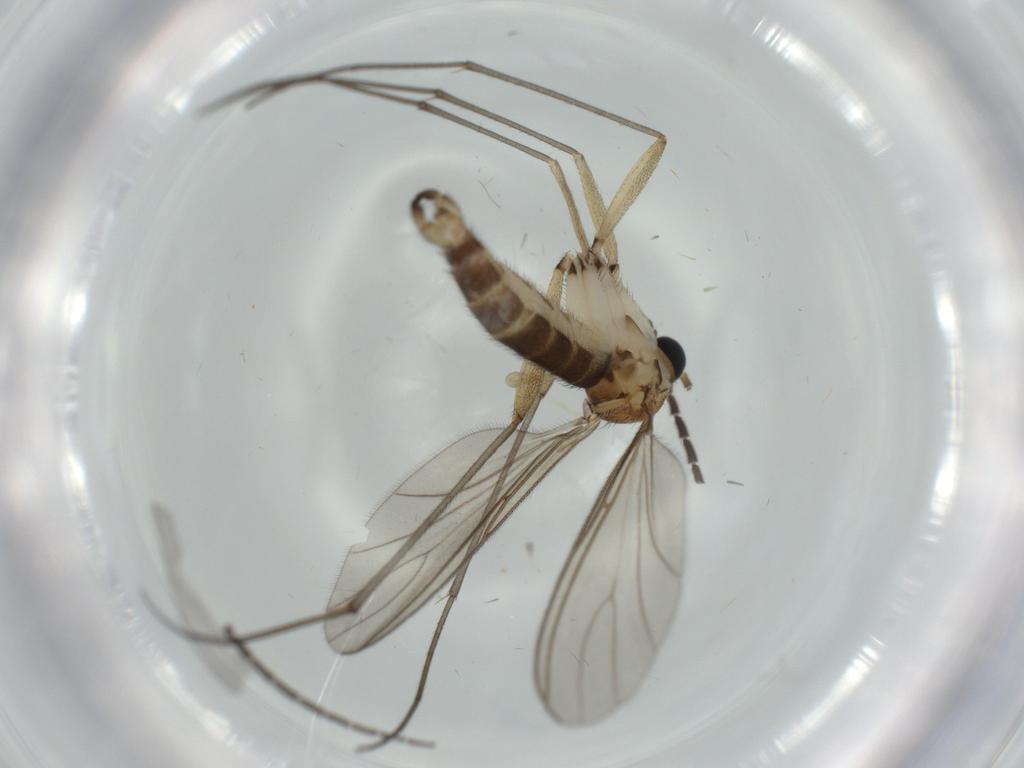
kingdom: Animalia
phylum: Arthropoda
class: Insecta
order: Diptera
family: Sciaridae
